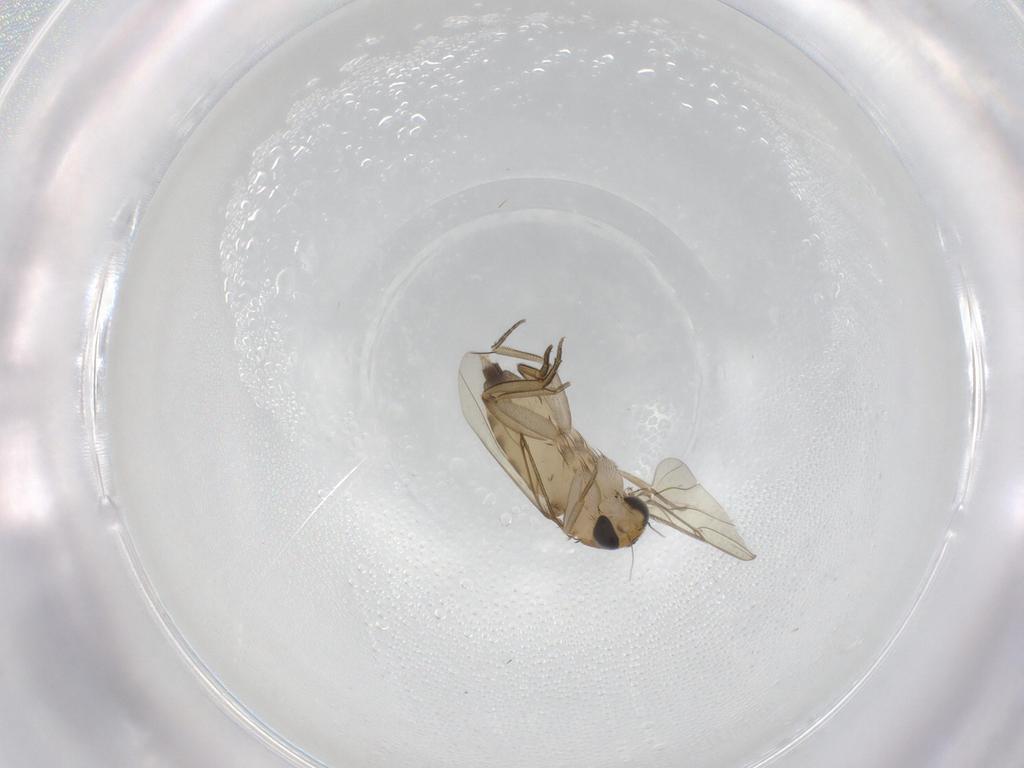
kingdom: Animalia
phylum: Arthropoda
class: Insecta
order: Diptera
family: Phoridae
